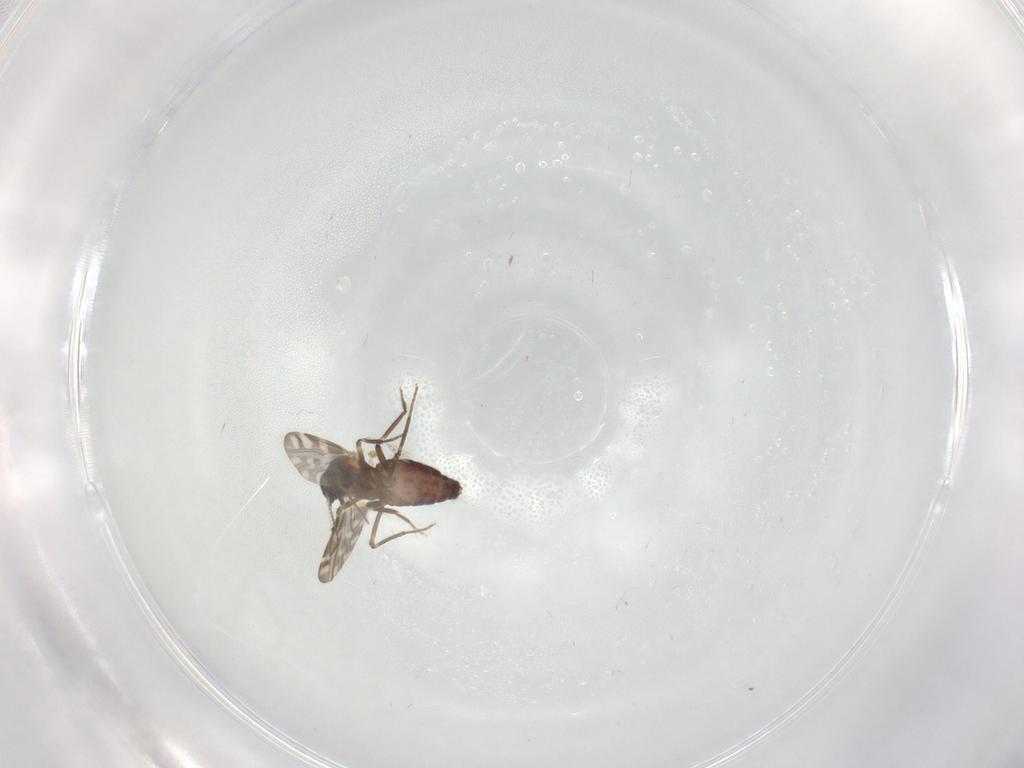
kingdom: Animalia
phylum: Arthropoda
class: Insecta
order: Diptera
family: Ceratopogonidae
